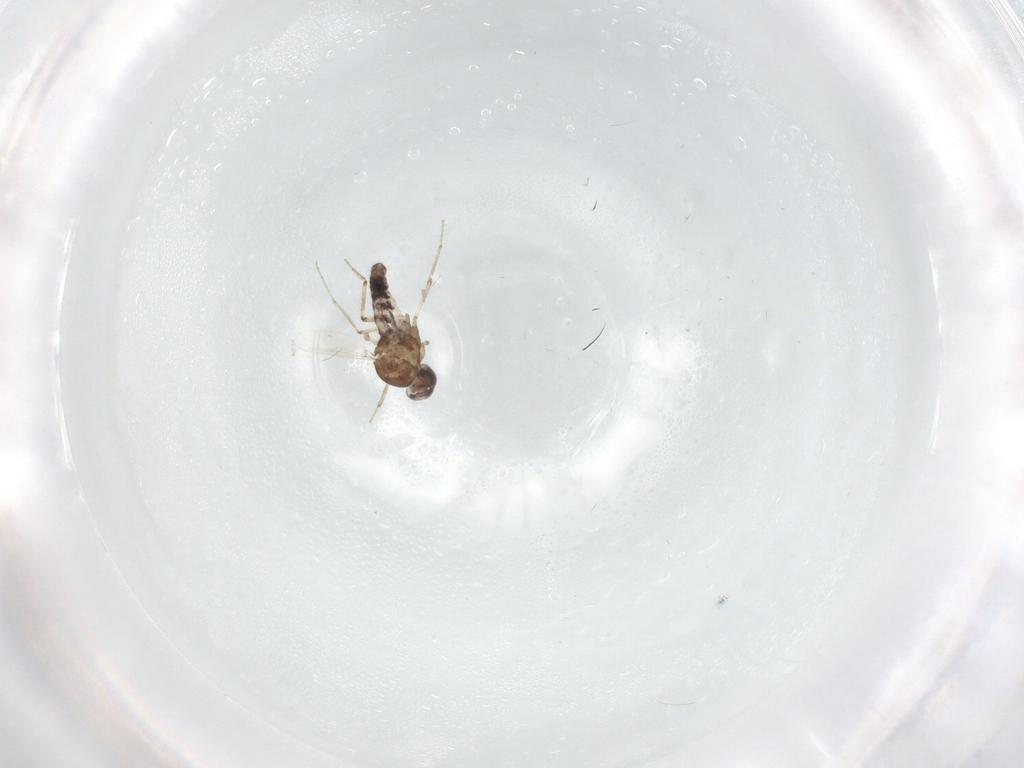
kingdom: Animalia
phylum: Arthropoda
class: Insecta
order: Diptera
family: Ceratopogonidae
